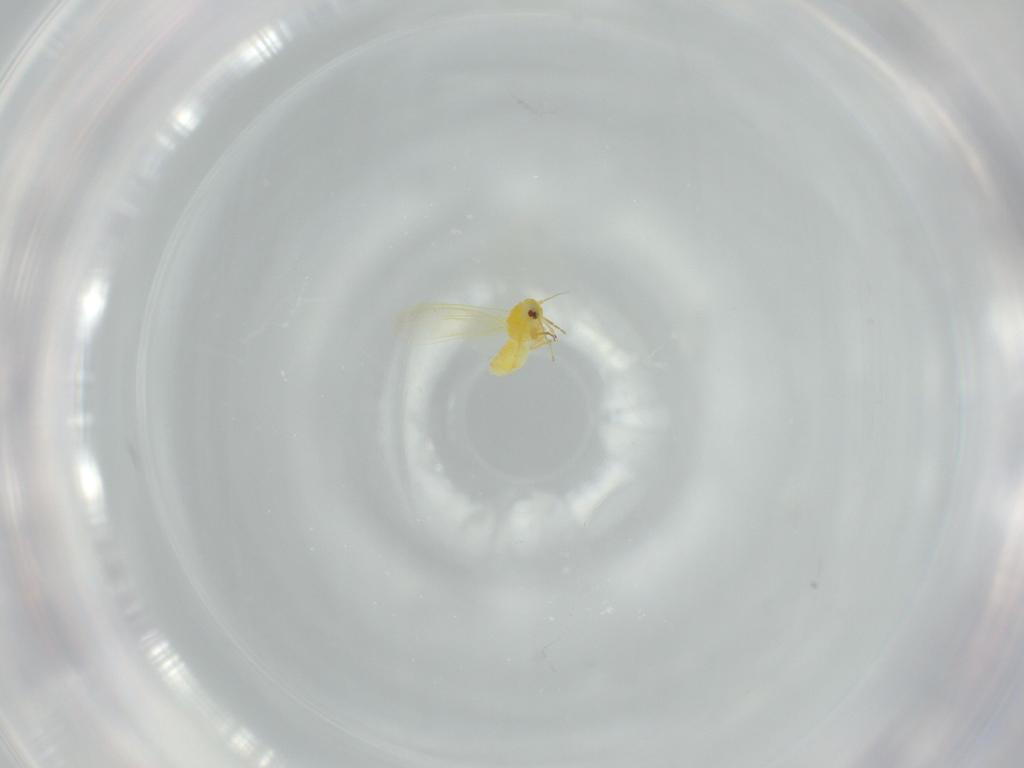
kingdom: Animalia
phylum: Arthropoda
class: Insecta
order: Hemiptera
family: Aleyrodidae
